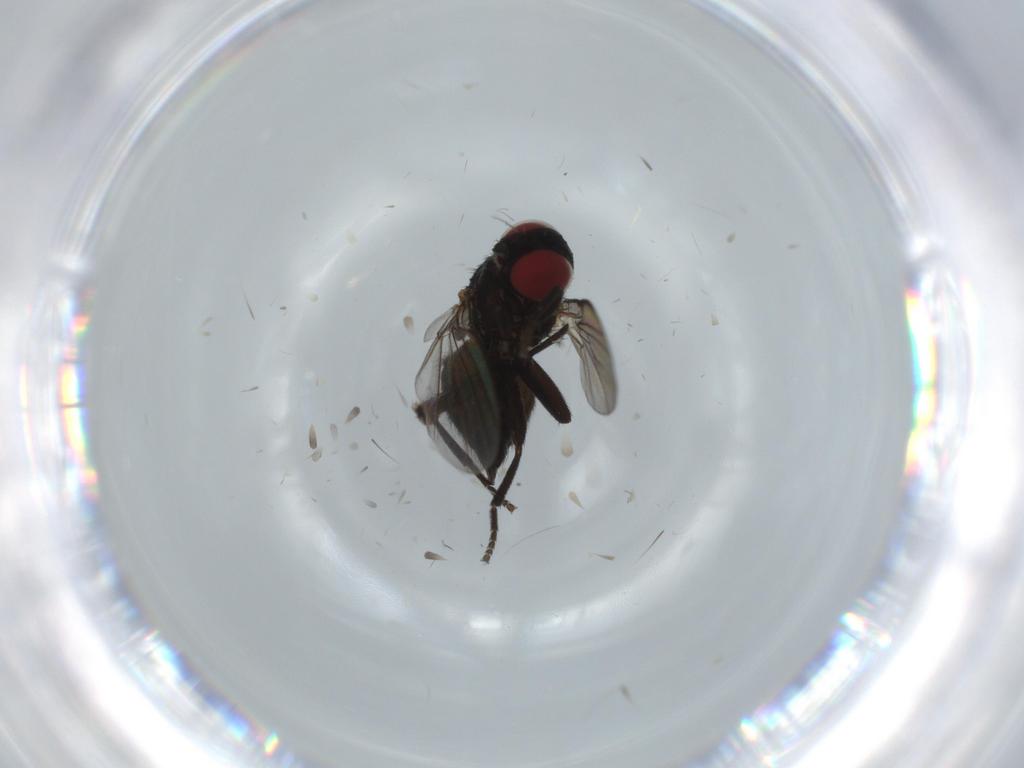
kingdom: Animalia
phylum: Arthropoda
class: Insecta
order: Diptera
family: Agromyzidae
